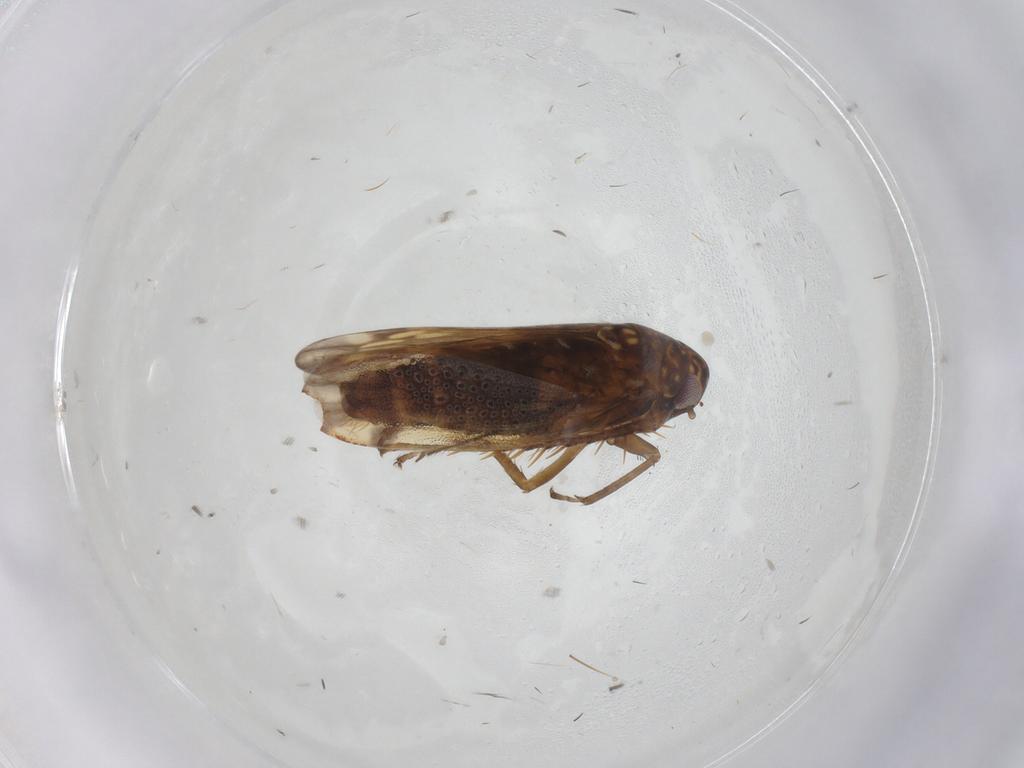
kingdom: Animalia
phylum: Arthropoda
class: Insecta
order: Hemiptera
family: Cicadellidae
